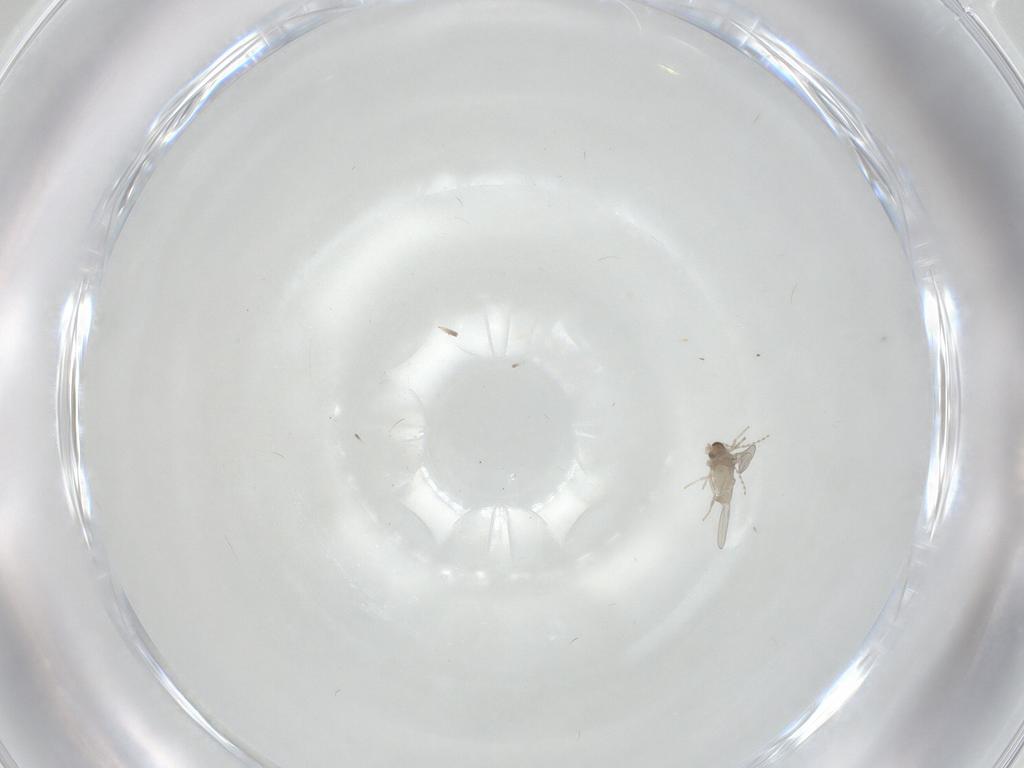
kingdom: Animalia
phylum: Arthropoda
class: Insecta
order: Diptera
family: Cecidomyiidae
